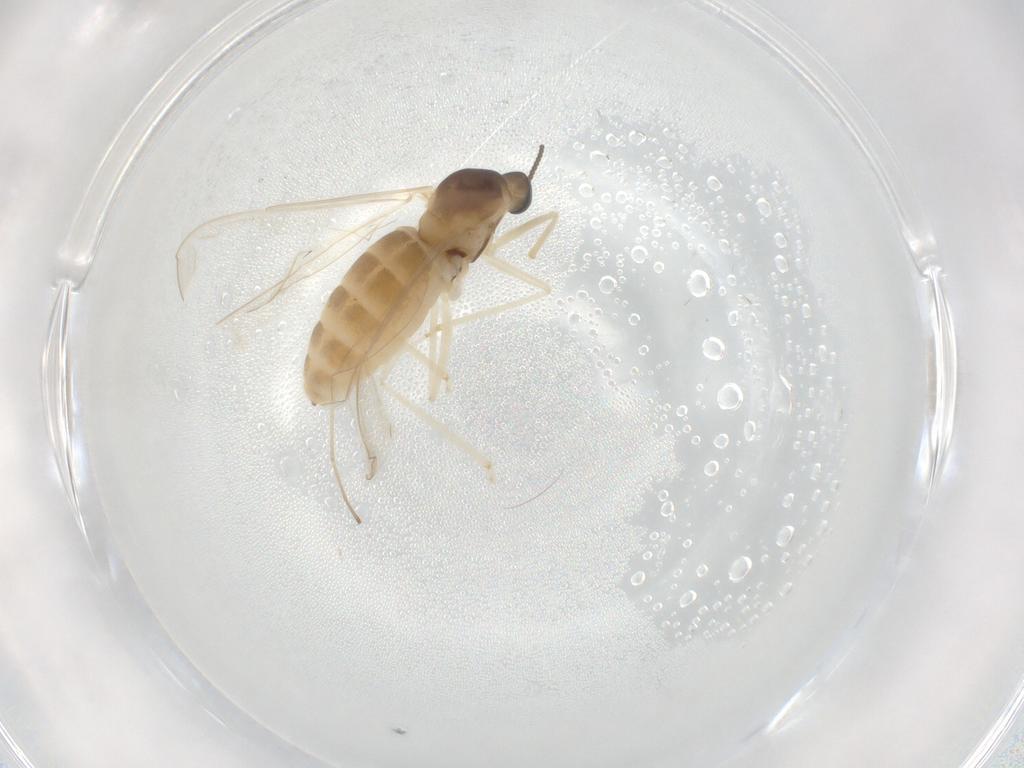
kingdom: Animalia
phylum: Arthropoda
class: Insecta
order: Diptera
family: Cecidomyiidae
